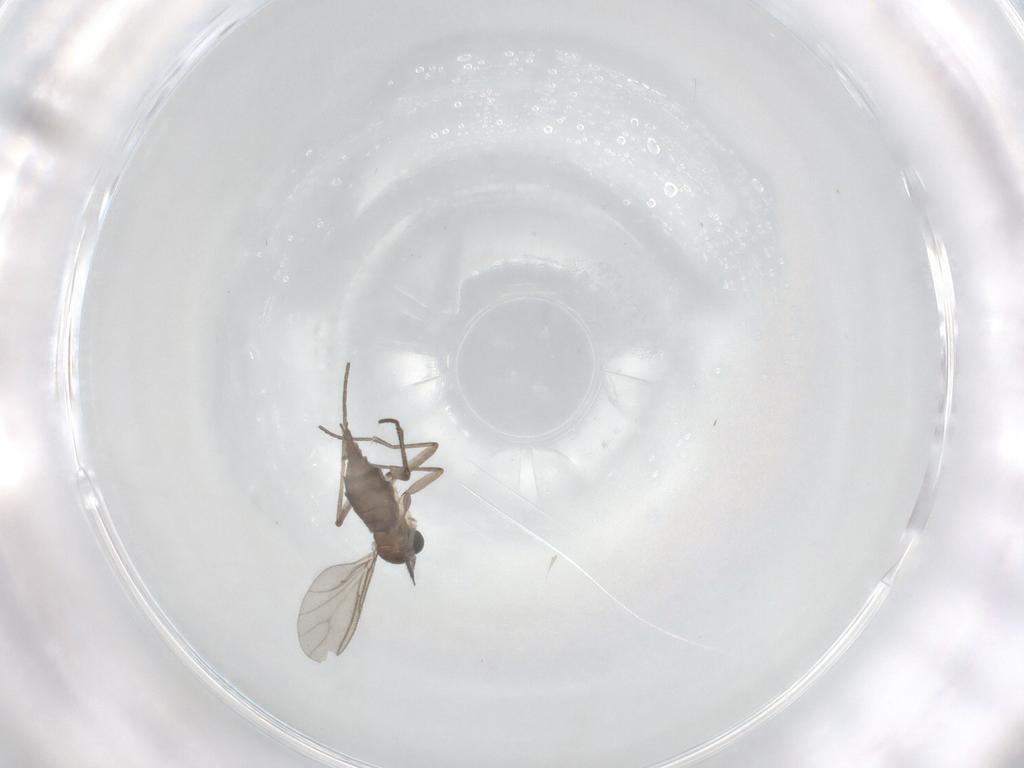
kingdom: Animalia
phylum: Arthropoda
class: Insecta
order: Diptera
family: Sciaridae
